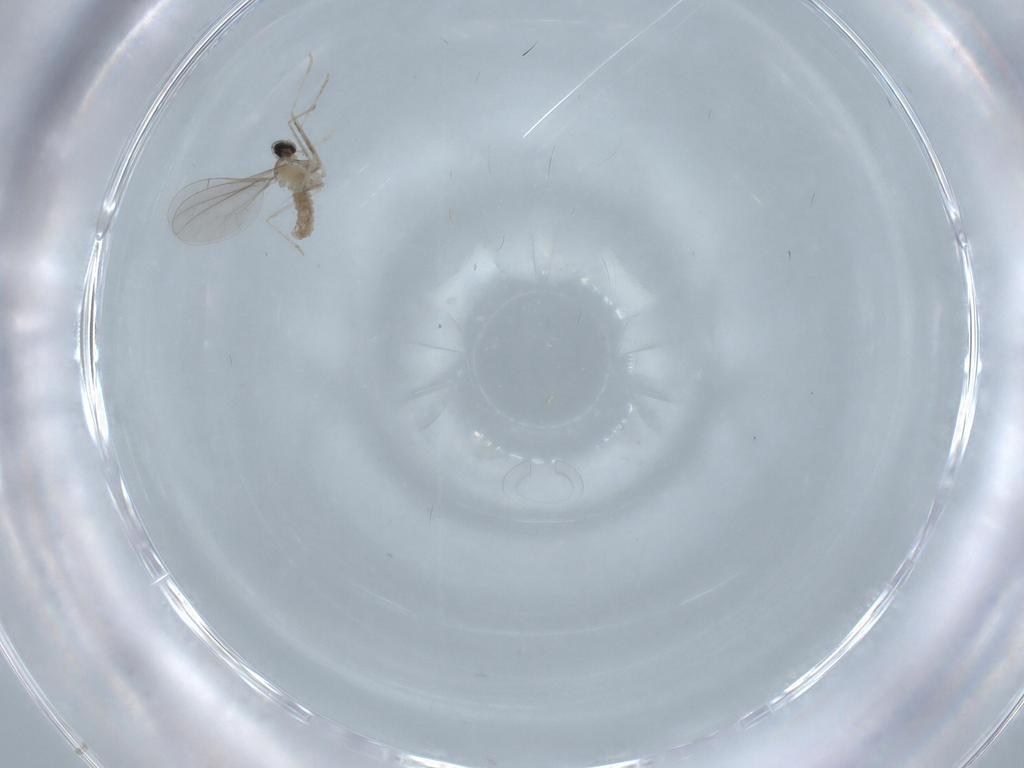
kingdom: Animalia
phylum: Arthropoda
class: Insecta
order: Diptera
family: Cecidomyiidae
